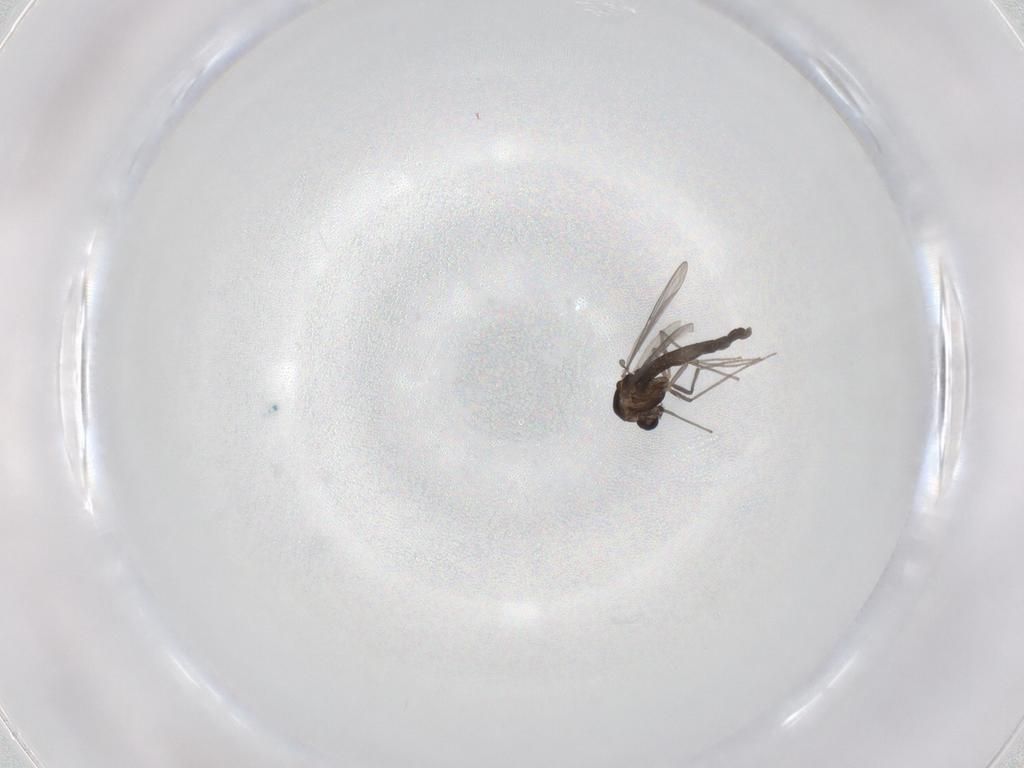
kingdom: Animalia
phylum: Arthropoda
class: Insecta
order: Diptera
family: Chironomidae
